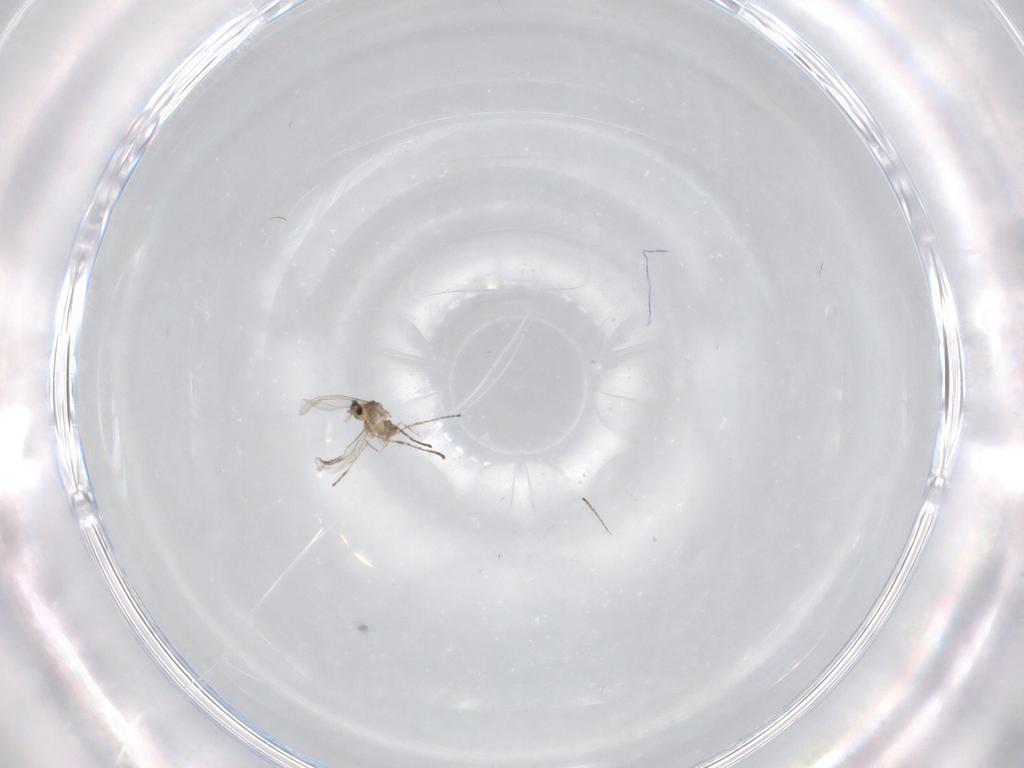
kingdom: Animalia
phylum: Arthropoda
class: Insecta
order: Diptera
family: Cecidomyiidae
